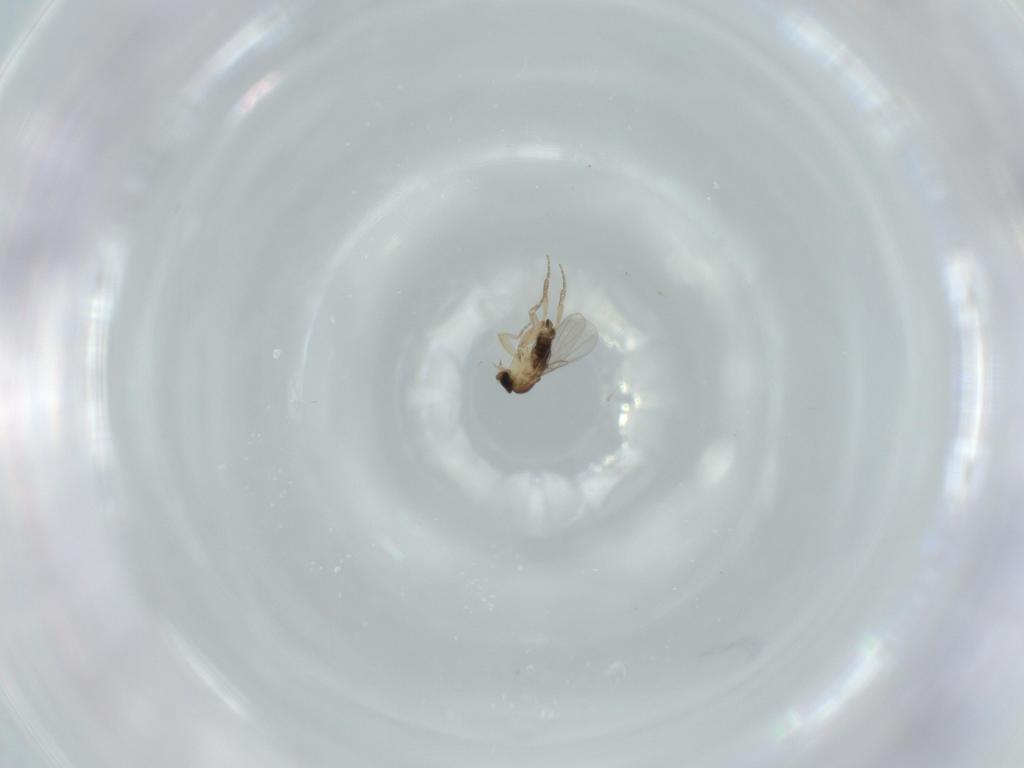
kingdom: Animalia
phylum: Arthropoda
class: Insecta
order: Diptera
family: Phoridae
